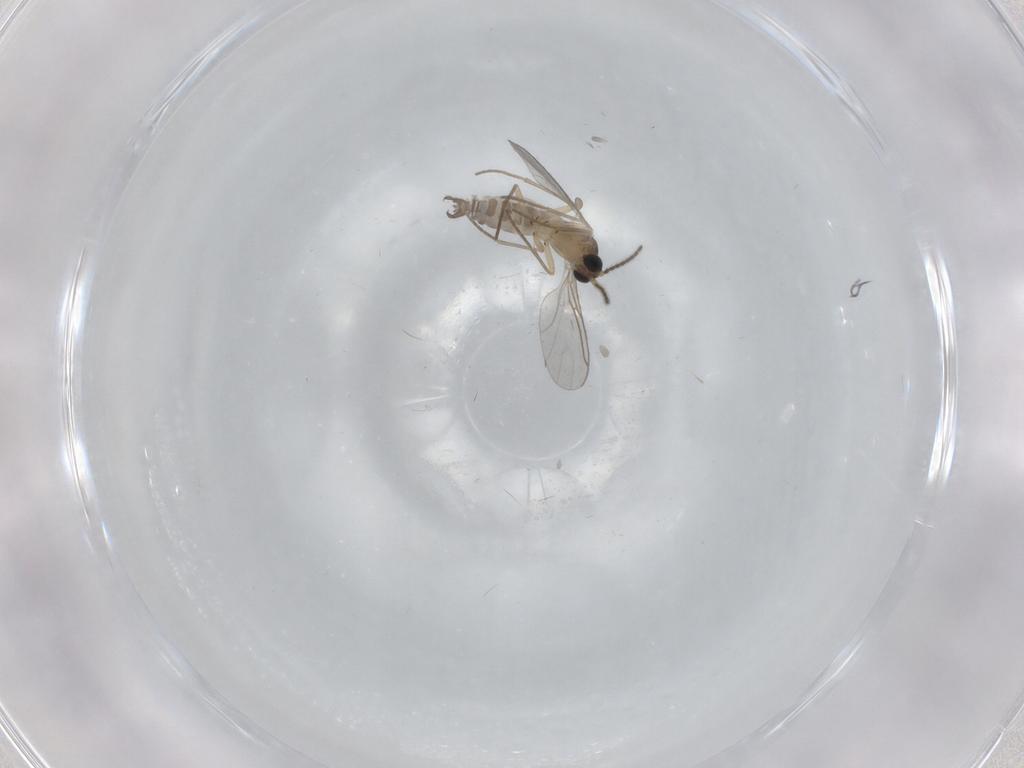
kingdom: Animalia
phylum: Arthropoda
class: Insecta
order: Diptera
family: Sciaridae
